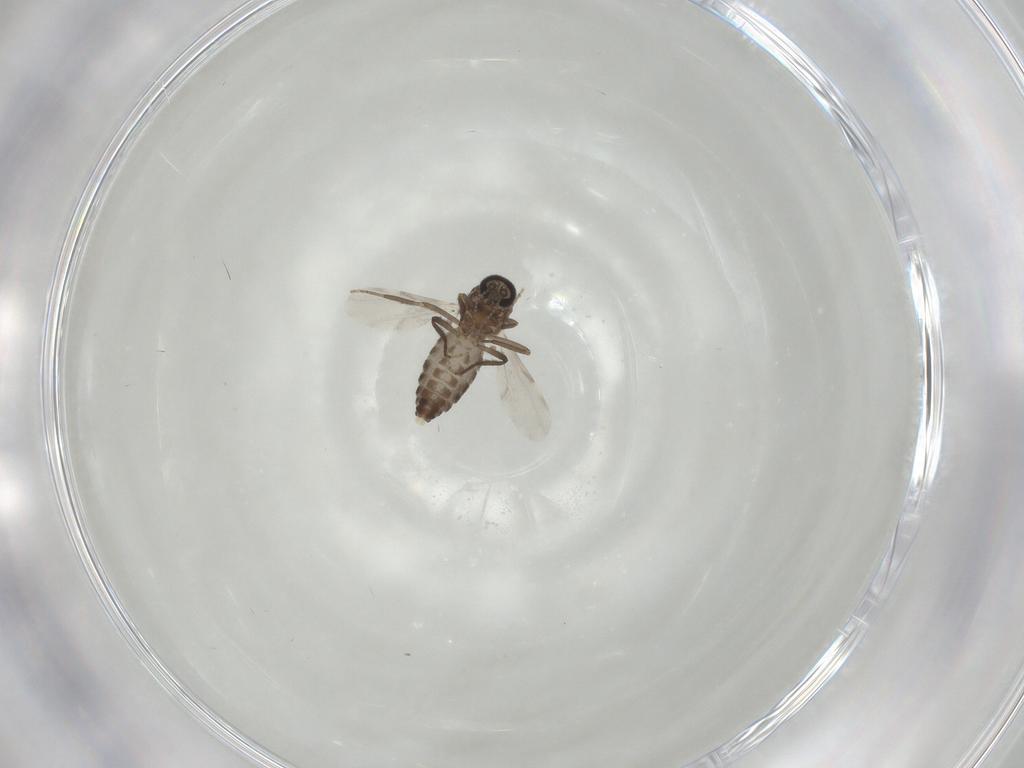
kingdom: Animalia
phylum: Arthropoda
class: Insecta
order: Diptera
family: Ceratopogonidae
